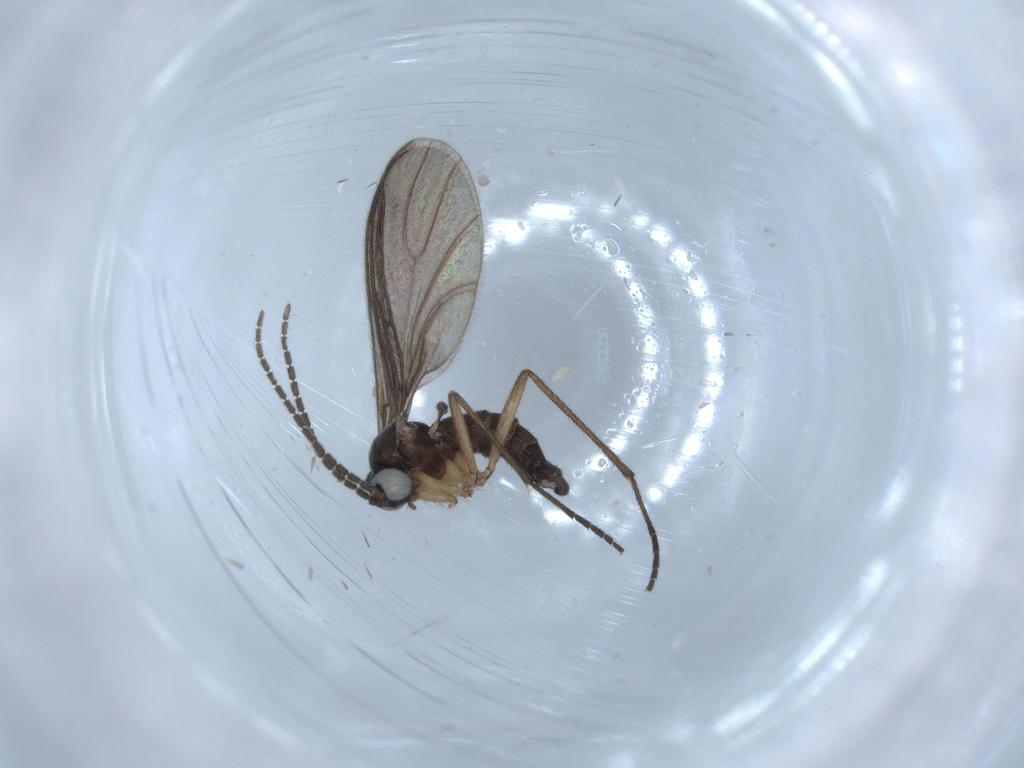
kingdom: Animalia
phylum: Arthropoda
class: Insecta
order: Diptera
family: Sciaridae
